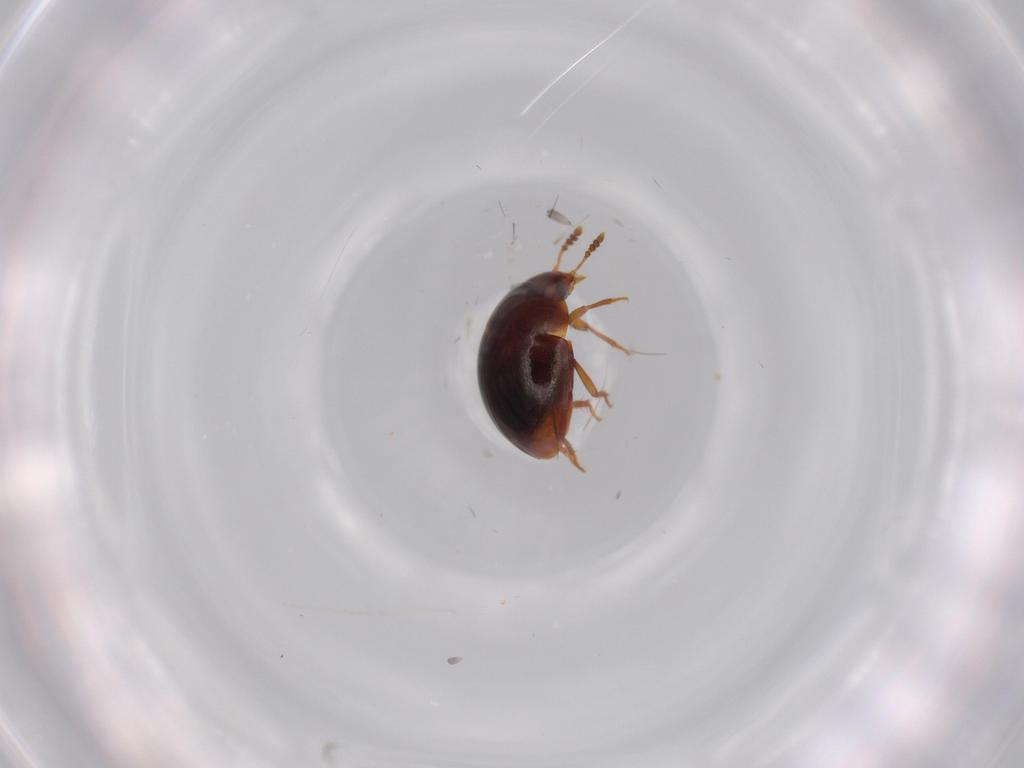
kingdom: Animalia
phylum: Arthropoda
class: Insecta
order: Coleoptera
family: Leiodidae
